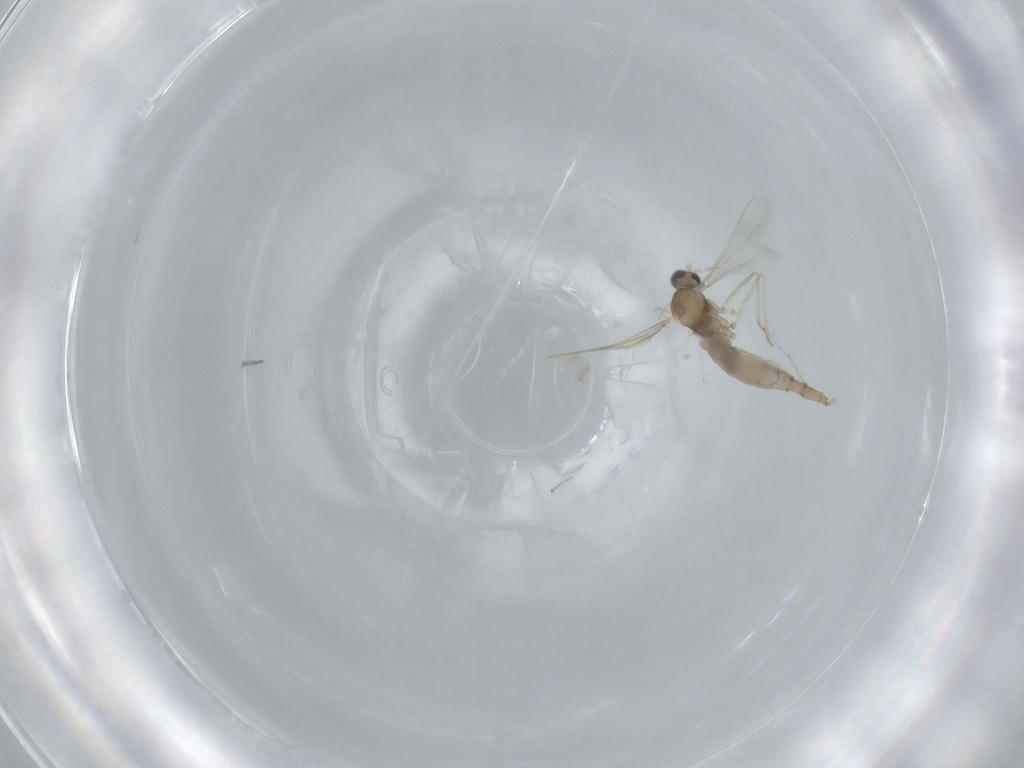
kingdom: Animalia
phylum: Arthropoda
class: Insecta
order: Diptera
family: Cecidomyiidae
